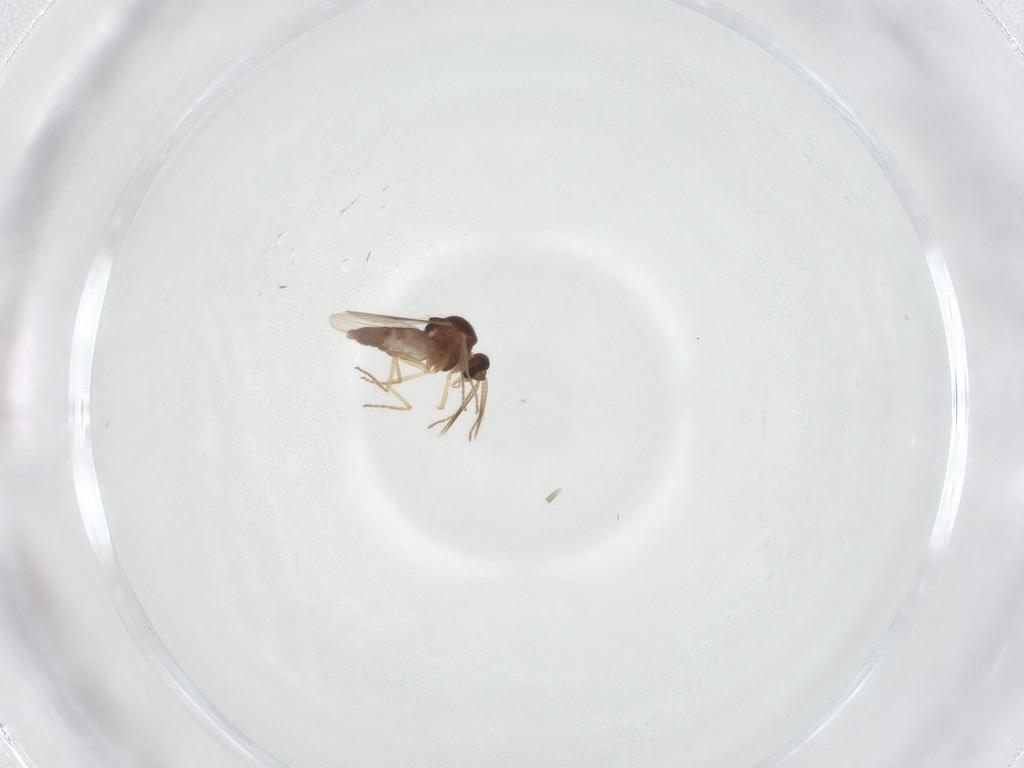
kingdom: Animalia
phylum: Arthropoda
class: Insecta
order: Diptera
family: Ceratopogonidae
